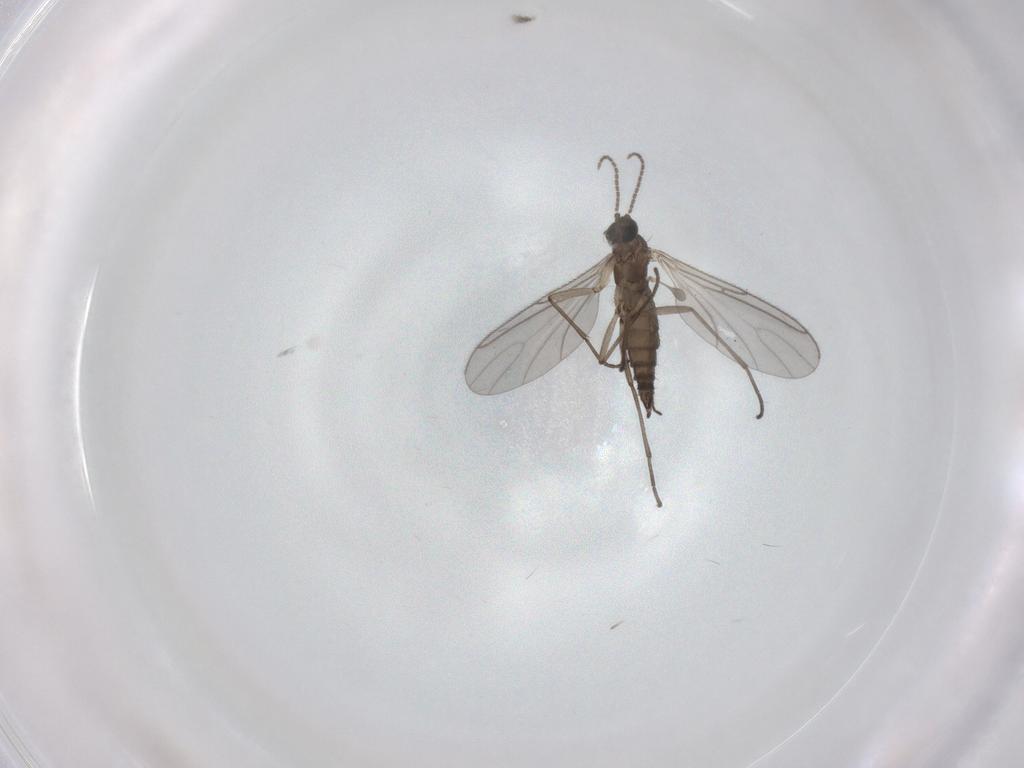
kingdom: Animalia
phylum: Arthropoda
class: Insecta
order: Diptera
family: Sciaridae
